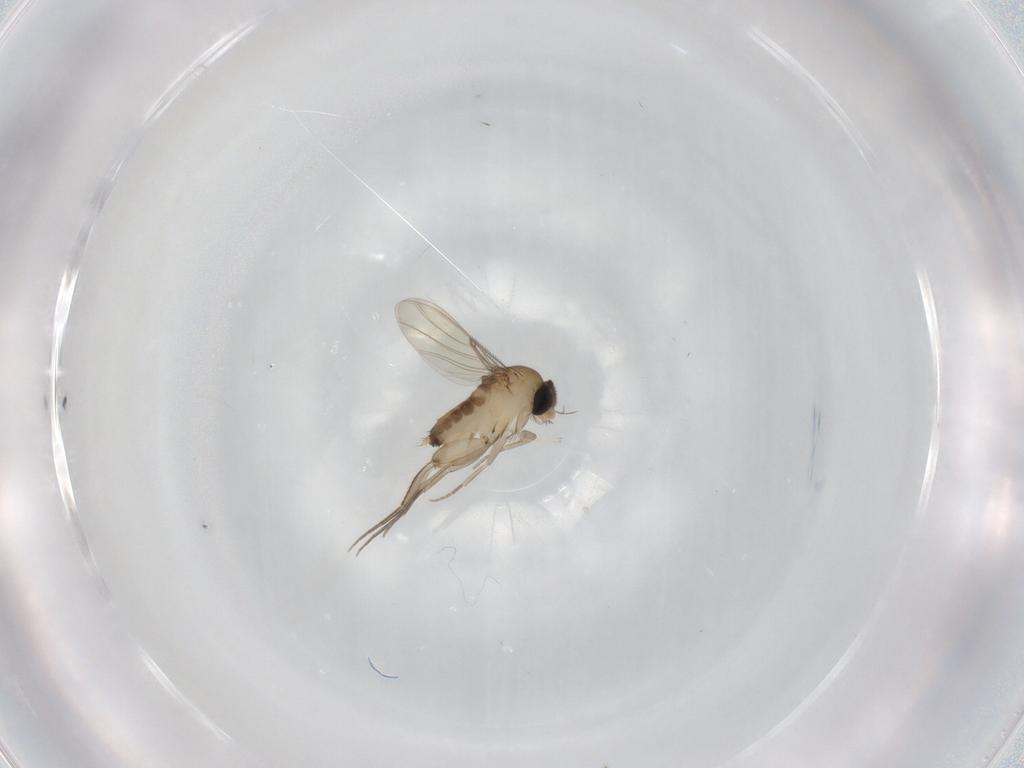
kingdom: Animalia
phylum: Arthropoda
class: Insecta
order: Diptera
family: Phoridae
